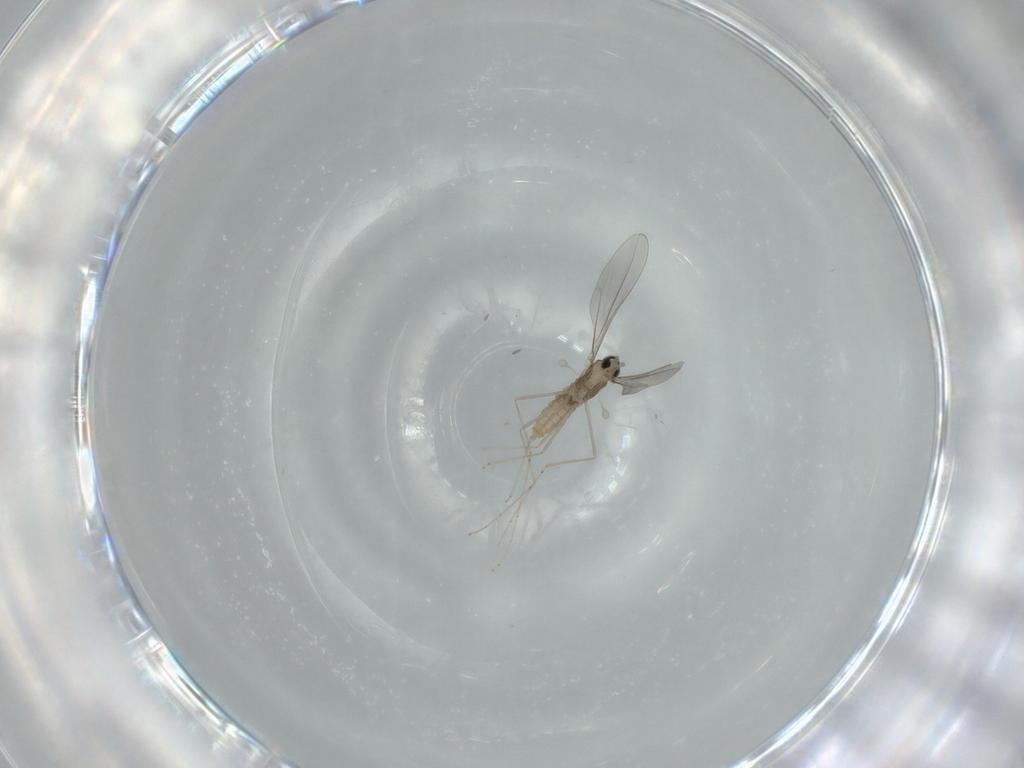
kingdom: Animalia
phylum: Arthropoda
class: Insecta
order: Diptera
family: Cecidomyiidae
